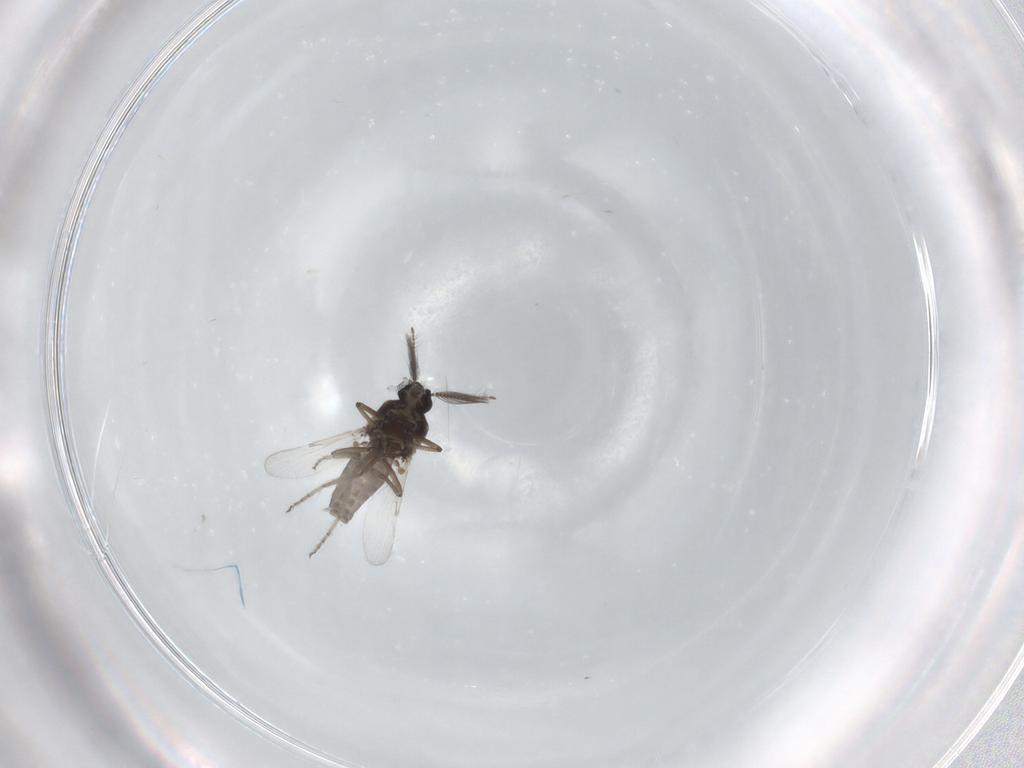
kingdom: Animalia
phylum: Arthropoda
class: Insecta
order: Diptera
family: Ceratopogonidae
